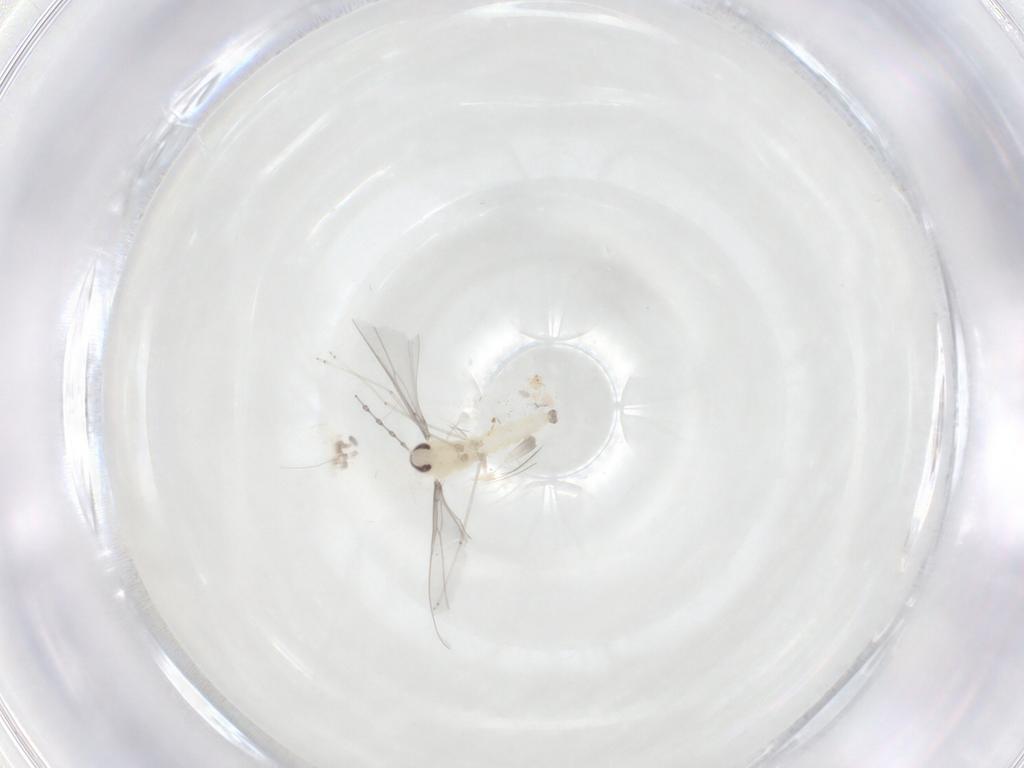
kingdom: Animalia
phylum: Arthropoda
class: Insecta
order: Diptera
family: Cecidomyiidae
